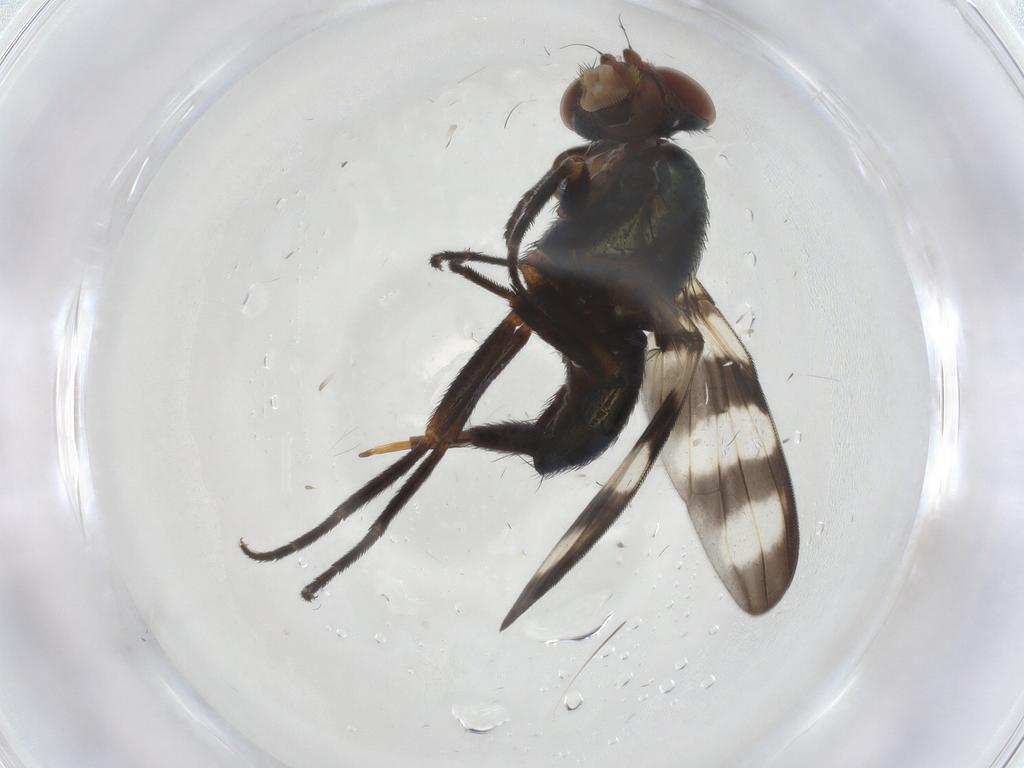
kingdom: Animalia
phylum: Arthropoda
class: Insecta
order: Diptera
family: Ulidiidae
